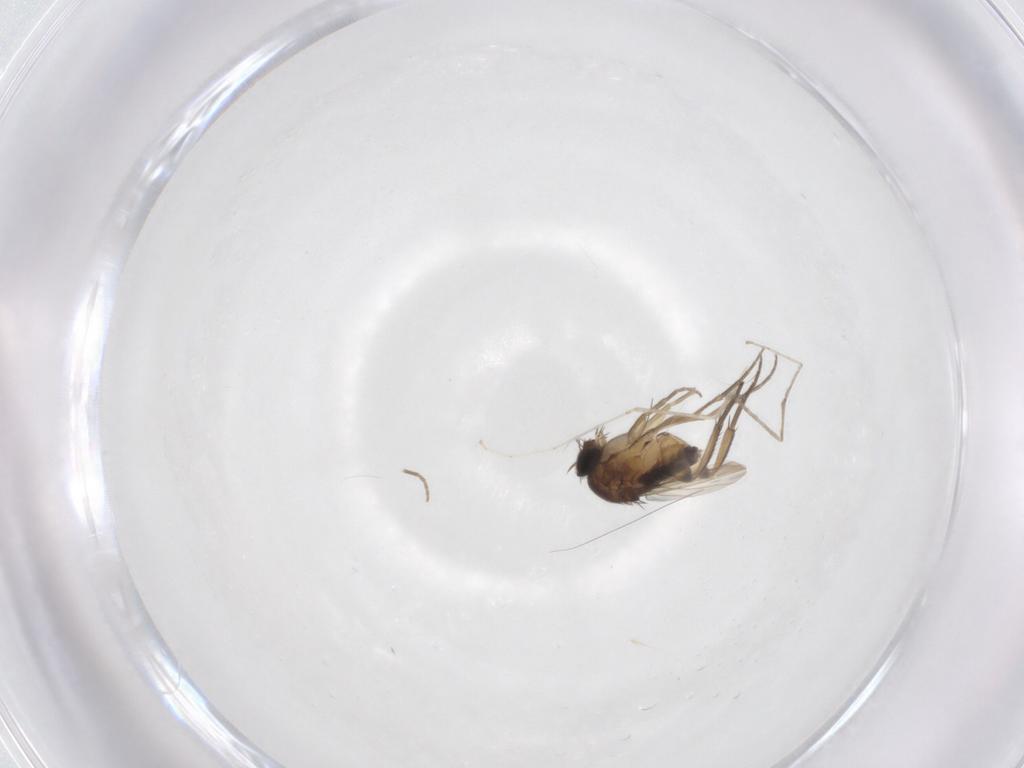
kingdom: Animalia
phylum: Arthropoda
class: Insecta
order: Diptera
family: Phoridae
